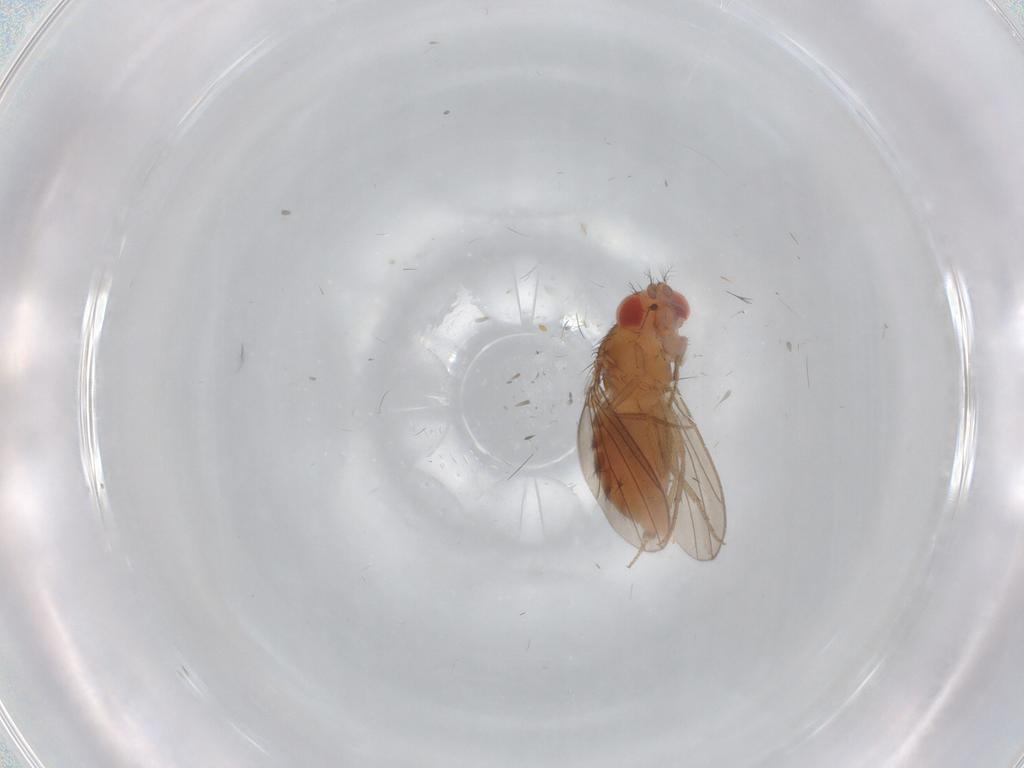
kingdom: Animalia
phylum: Arthropoda
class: Insecta
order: Diptera
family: Drosophilidae
